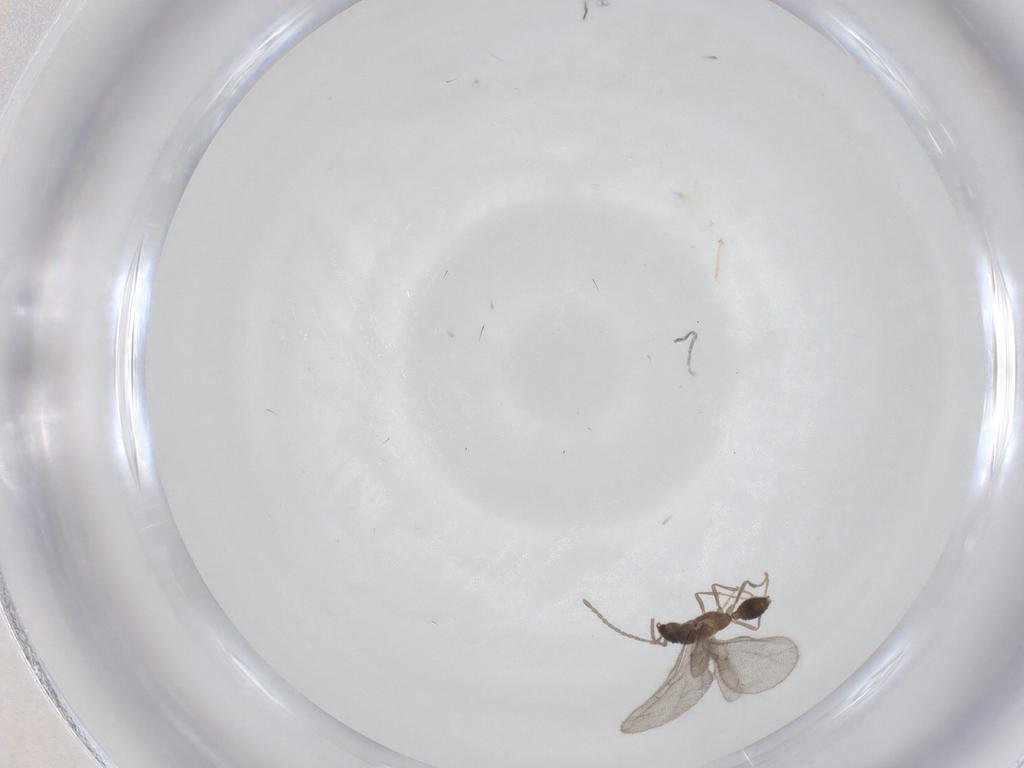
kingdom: Animalia
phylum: Arthropoda
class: Insecta
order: Hymenoptera
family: Formicidae
